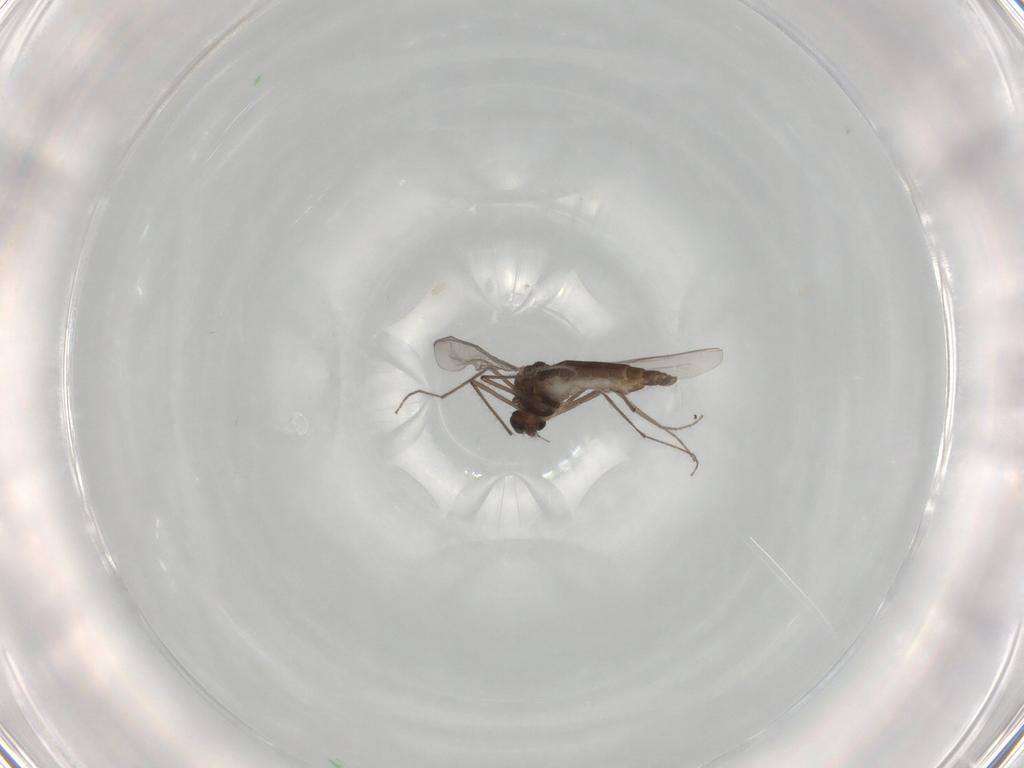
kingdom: Animalia
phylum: Arthropoda
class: Insecta
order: Diptera
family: Chironomidae
